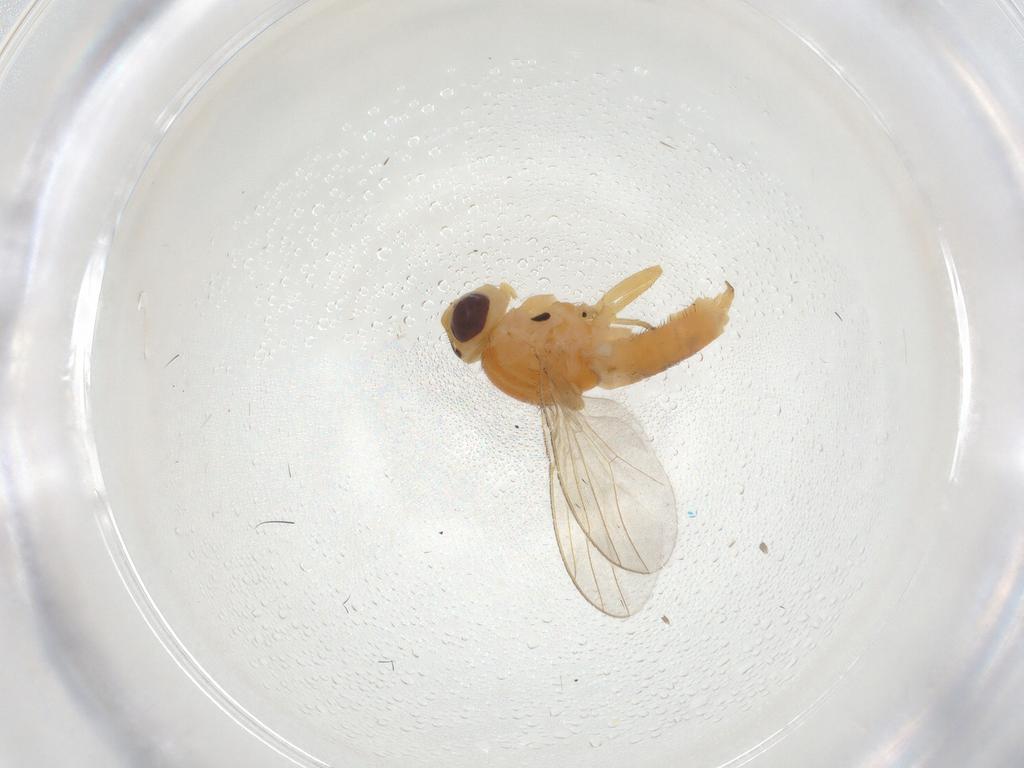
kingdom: Animalia
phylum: Arthropoda
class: Insecta
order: Diptera
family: Chloropidae
